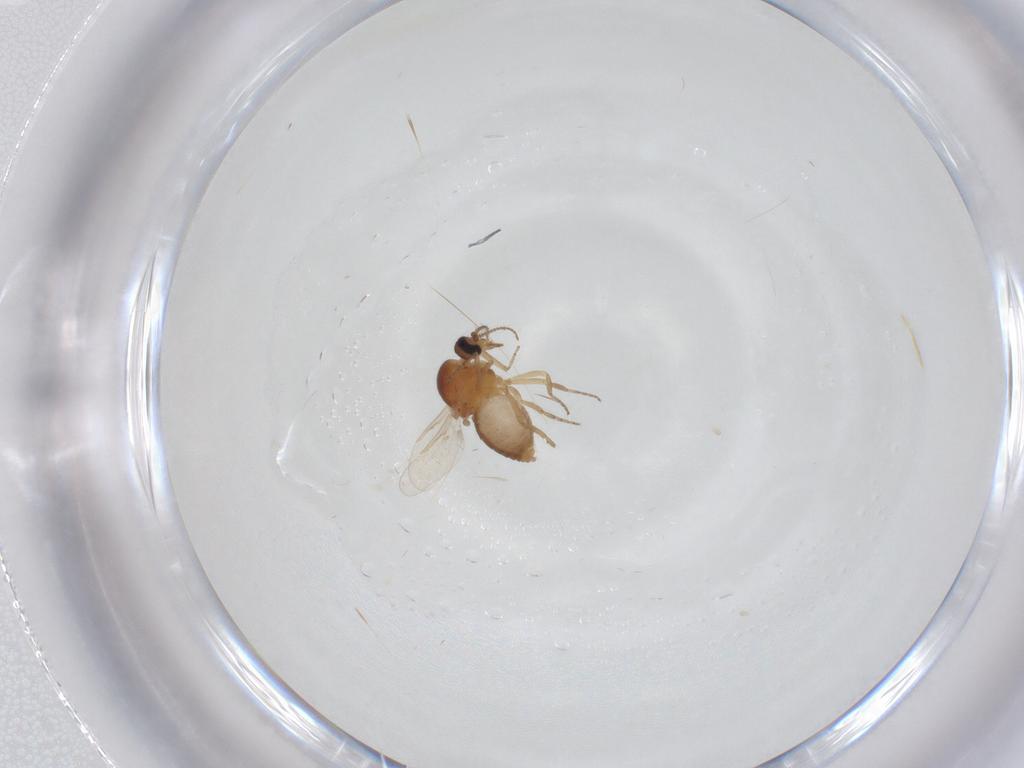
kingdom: Animalia
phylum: Arthropoda
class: Insecta
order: Diptera
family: Ceratopogonidae
